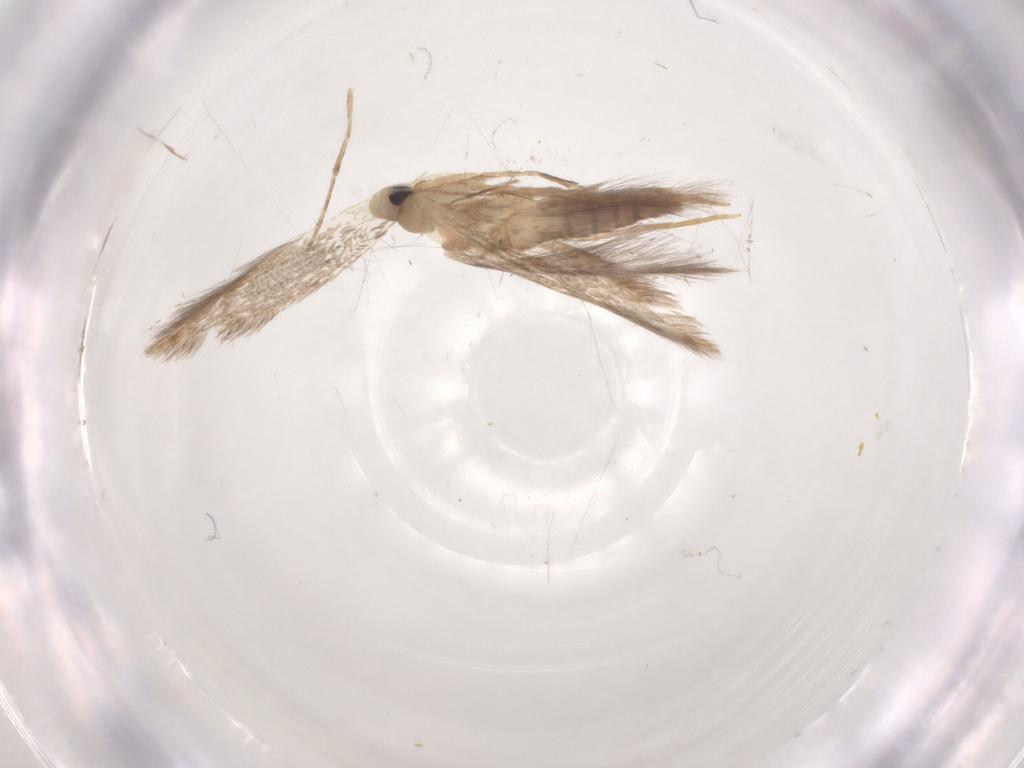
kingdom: Animalia
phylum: Arthropoda
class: Insecta
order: Lepidoptera
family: Tischeriidae
